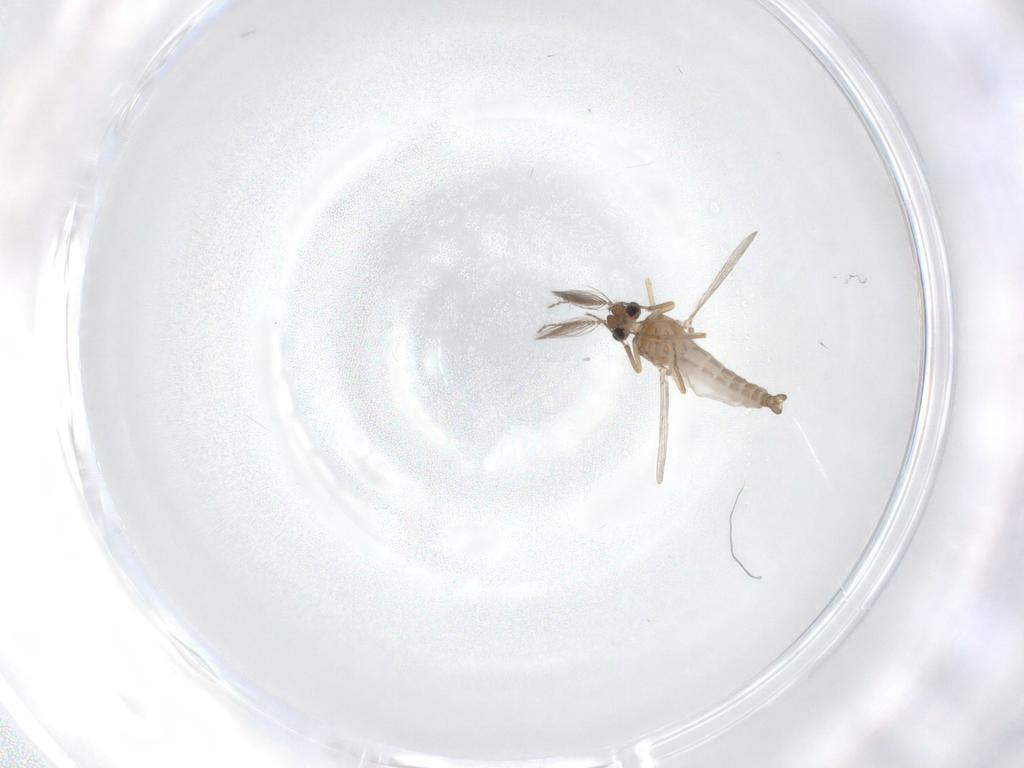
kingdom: Animalia
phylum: Arthropoda
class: Insecta
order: Diptera
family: Ceratopogonidae
